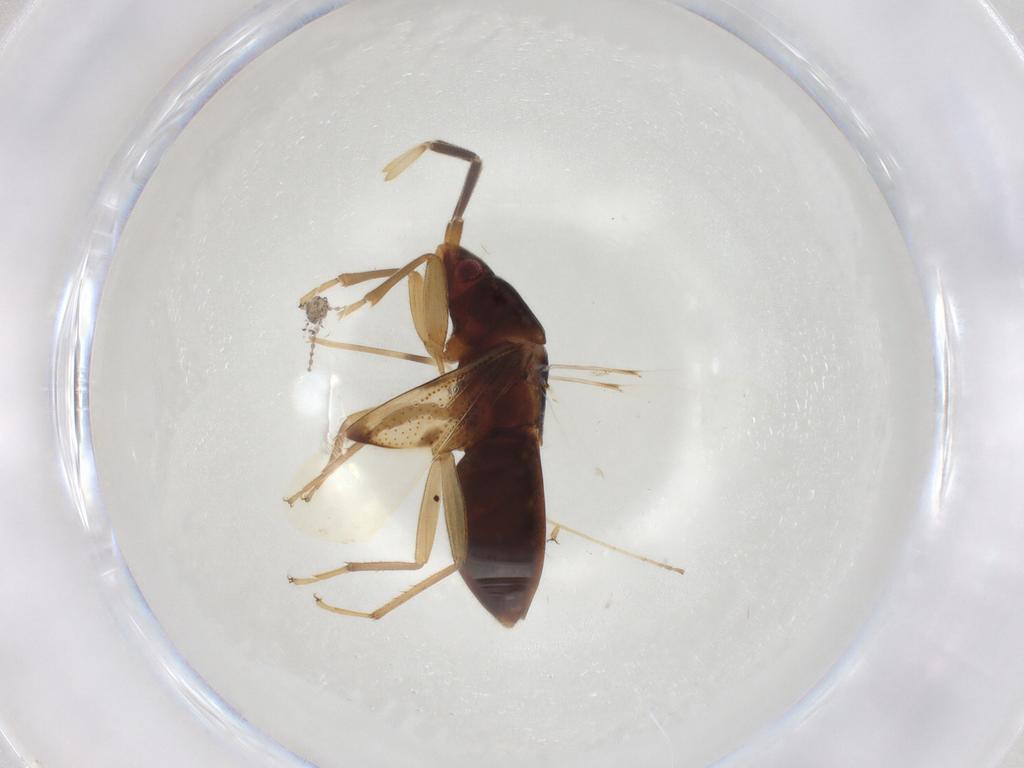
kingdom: Animalia
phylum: Arthropoda
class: Insecta
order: Hemiptera
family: Rhyparochromidae
